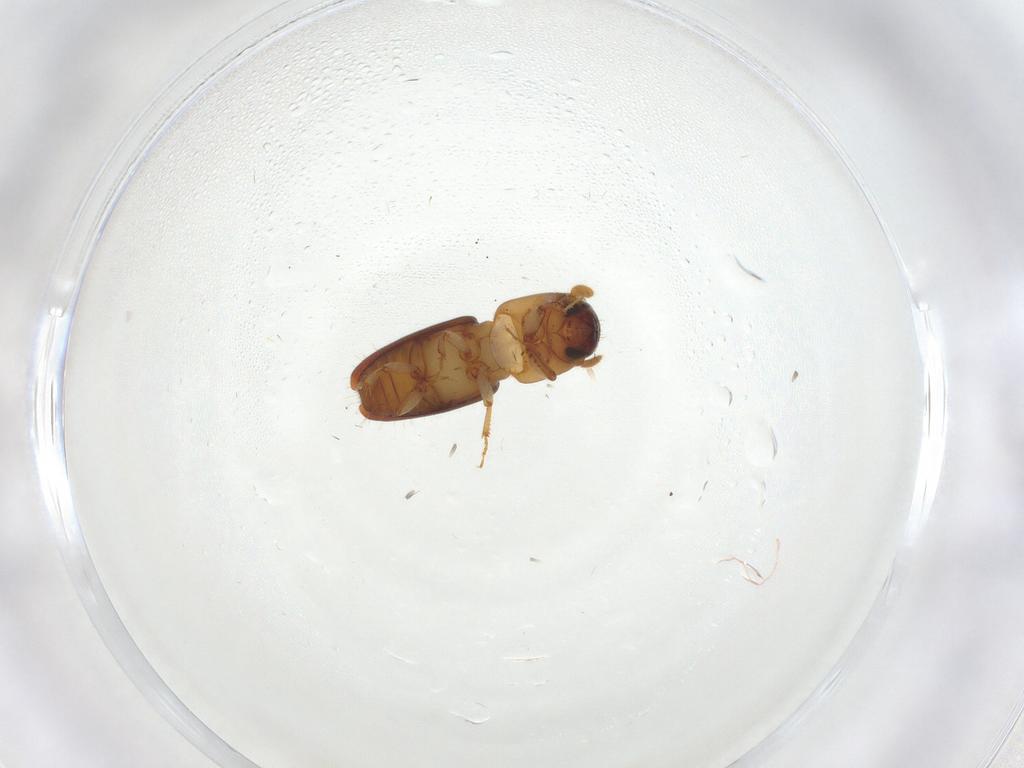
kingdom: Animalia
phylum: Arthropoda
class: Insecta
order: Coleoptera
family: Curculionidae
